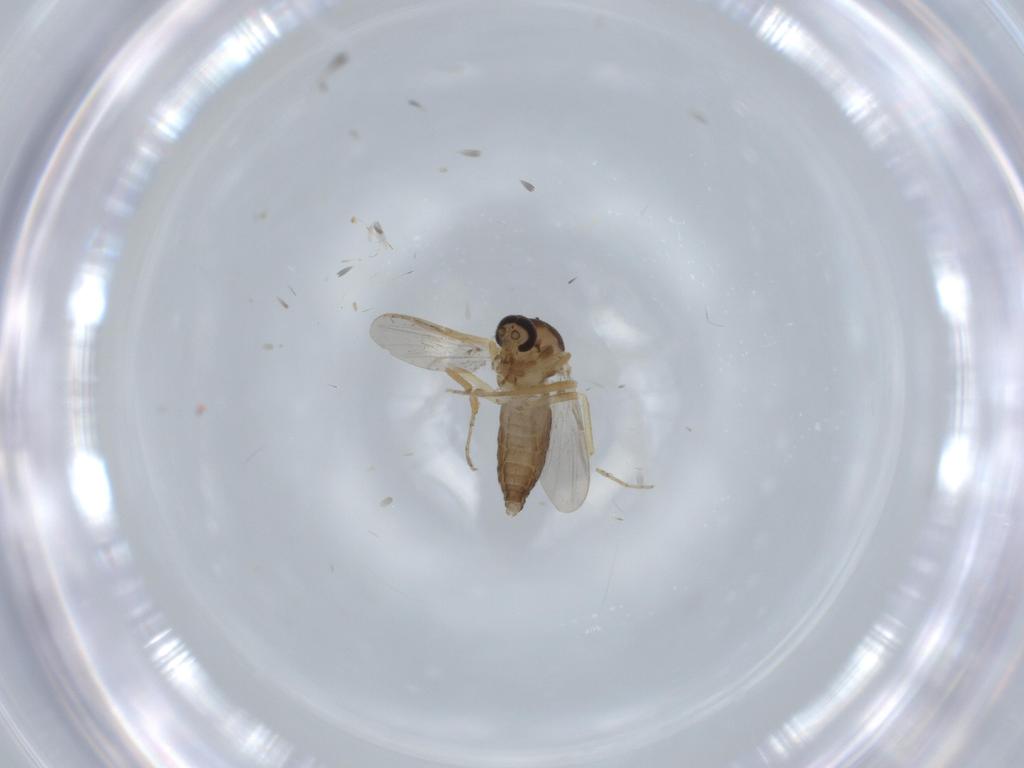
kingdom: Animalia
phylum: Arthropoda
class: Insecta
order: Diptera
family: Ceratopogonidae
